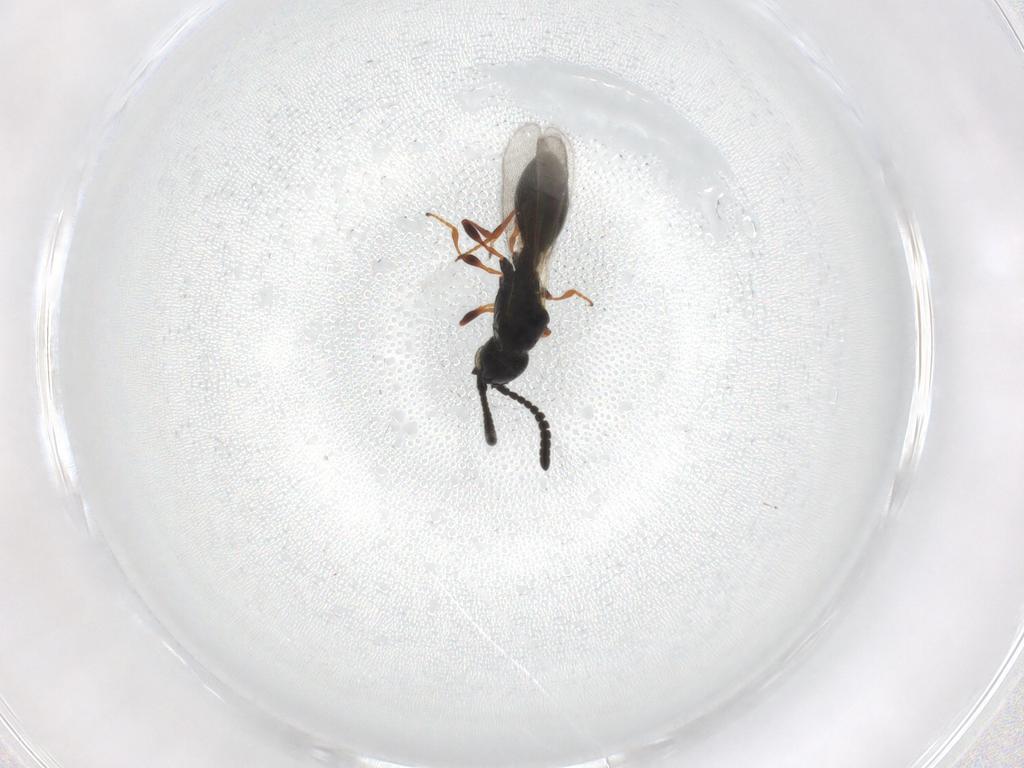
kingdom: Animalia
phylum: Arthropoda
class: Insecta
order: Hymenoptera
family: Diapriidae
